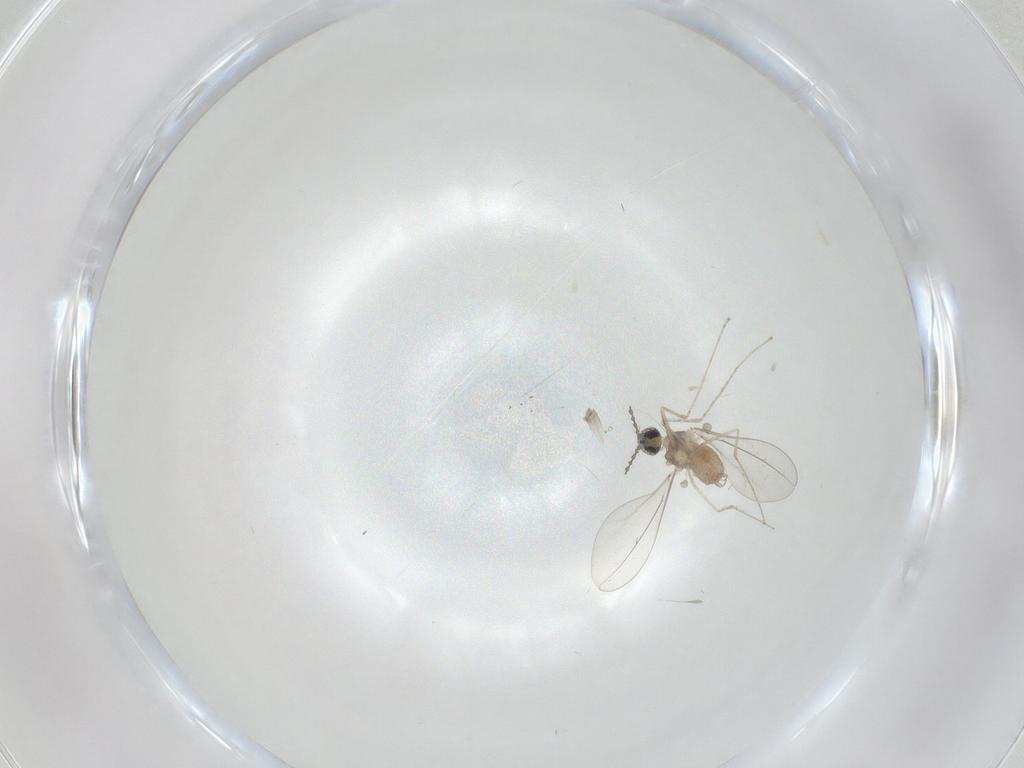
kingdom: Animalia
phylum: Arthropoda
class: Insecta
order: Diptera
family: Cecidomyiidae
